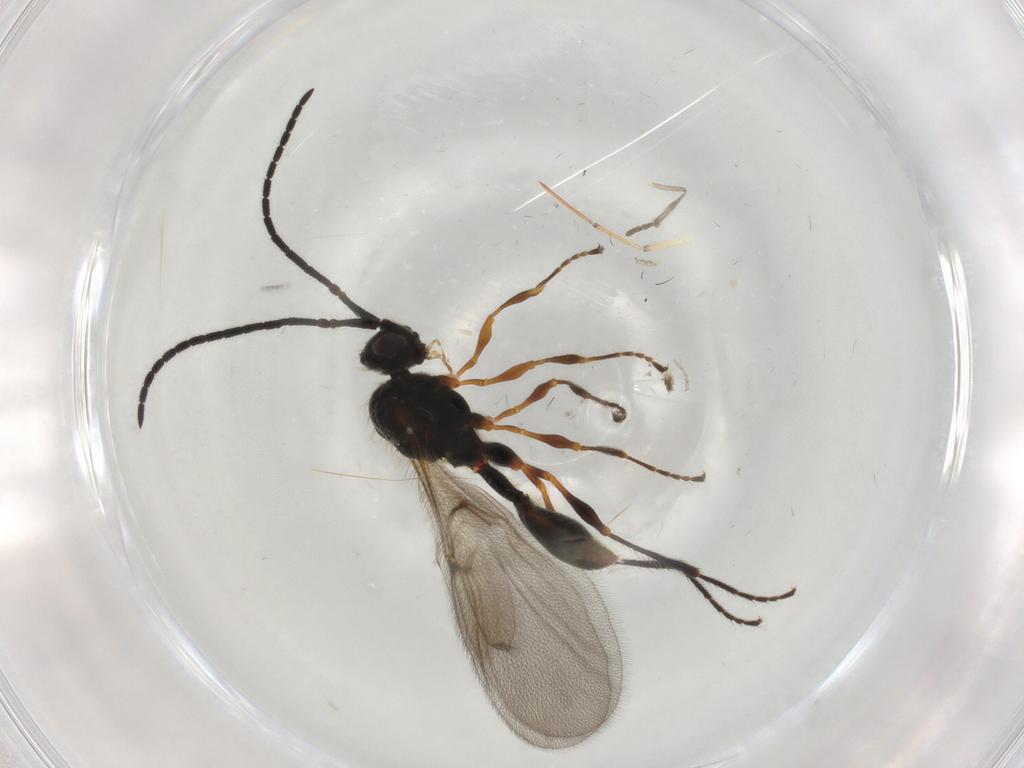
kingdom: Animalia
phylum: Arthropoda
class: Insecta
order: Hymenoptera
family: Diapriidae
